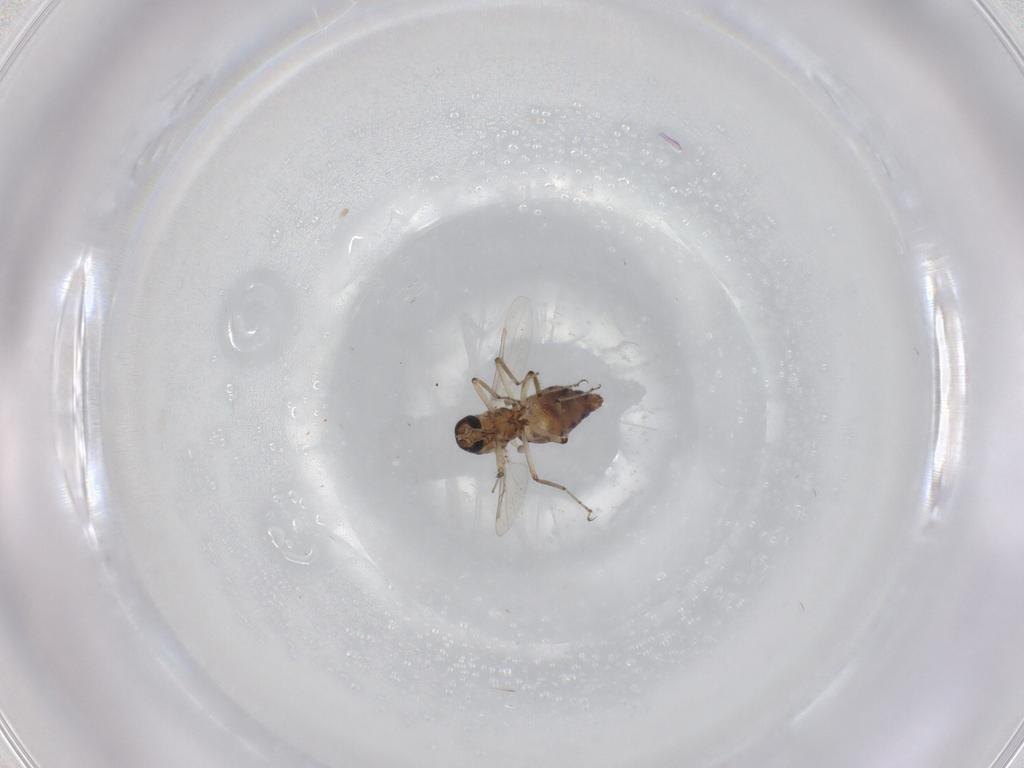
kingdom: Animalia
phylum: Arthropoda
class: Insecta
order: Diptera
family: Ceratopogonidae
